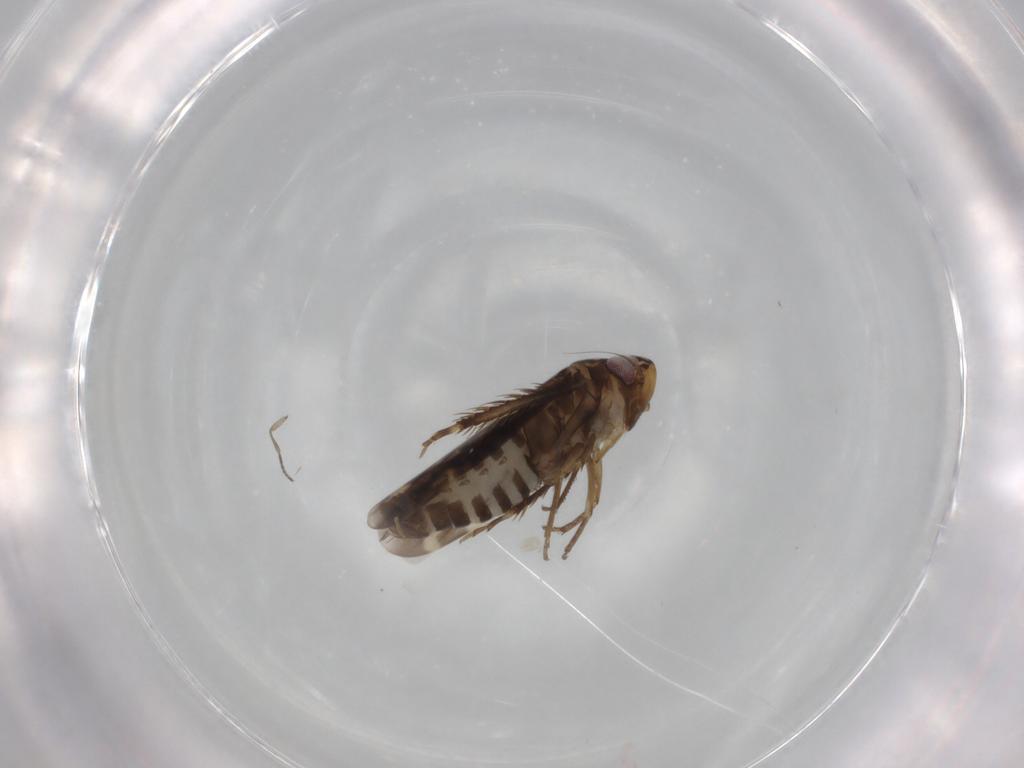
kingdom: Animalia
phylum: Arthropoda
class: Insecta
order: Hemiptera
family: Cicadellidae
